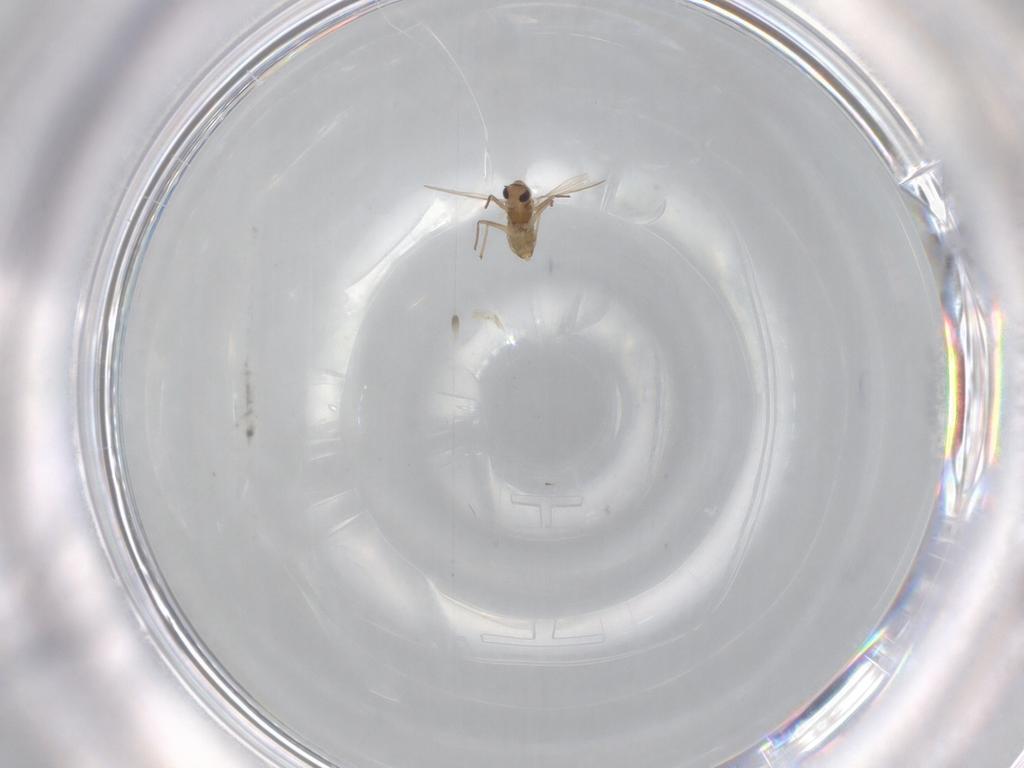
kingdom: Animalia
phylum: Arthropoda
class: Insecta
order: Diptera
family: Chironomidae
